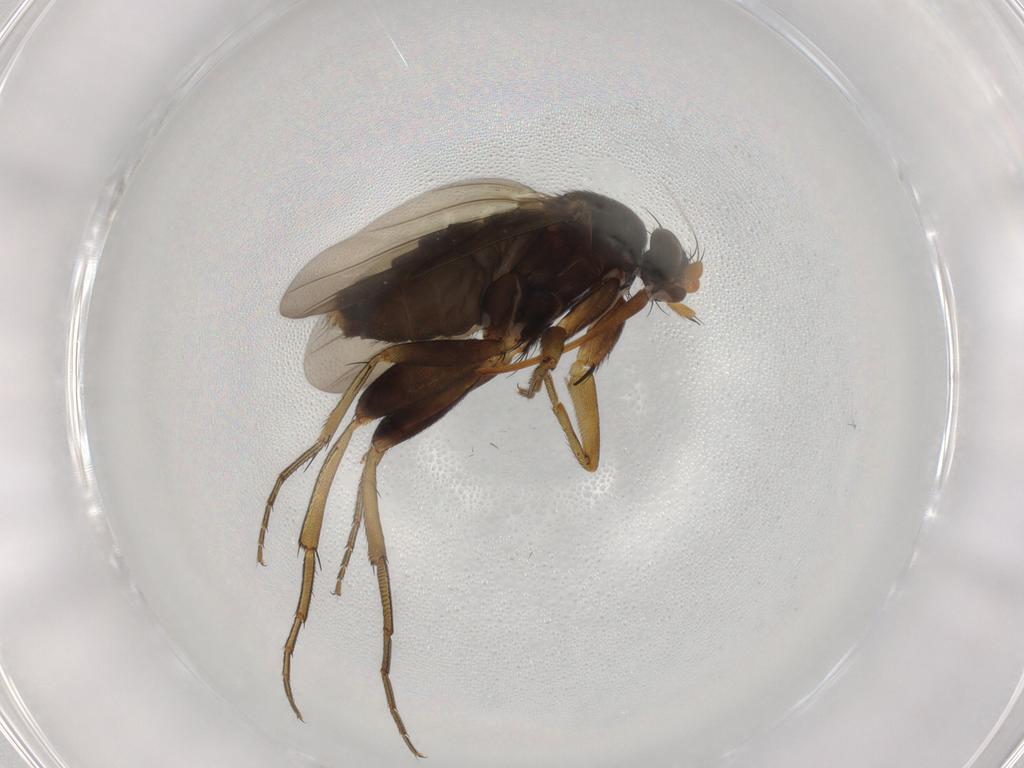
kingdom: Animalia
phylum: Arthropoda
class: Insecta
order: Diptera
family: Phoridae
